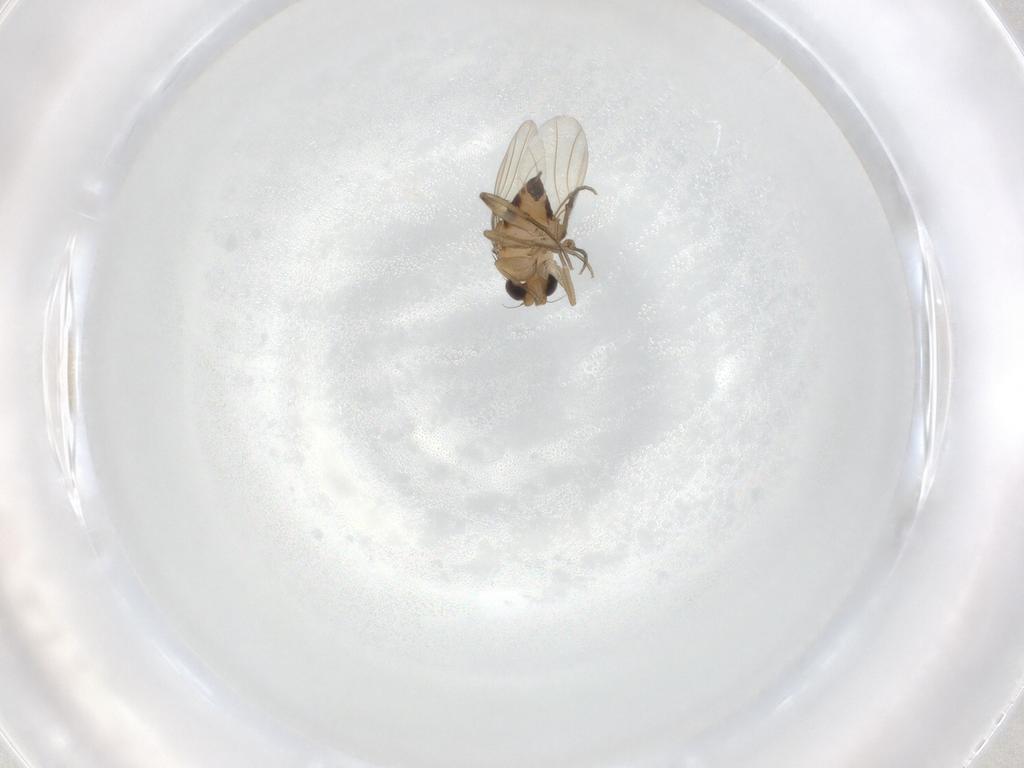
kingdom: Animalia
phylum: Arthropoda
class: Insecta
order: Diptera
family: Phoridae
